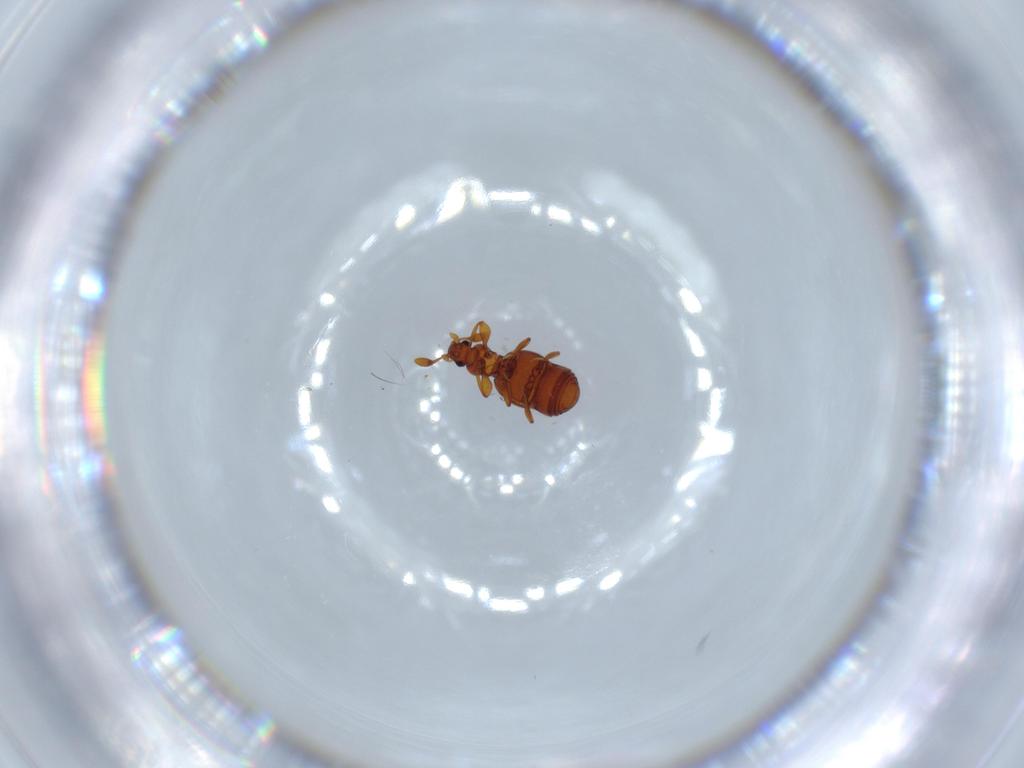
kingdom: Animalia
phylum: Arthropoda
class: Insecta
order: Coleoptera
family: Staphylinidae
